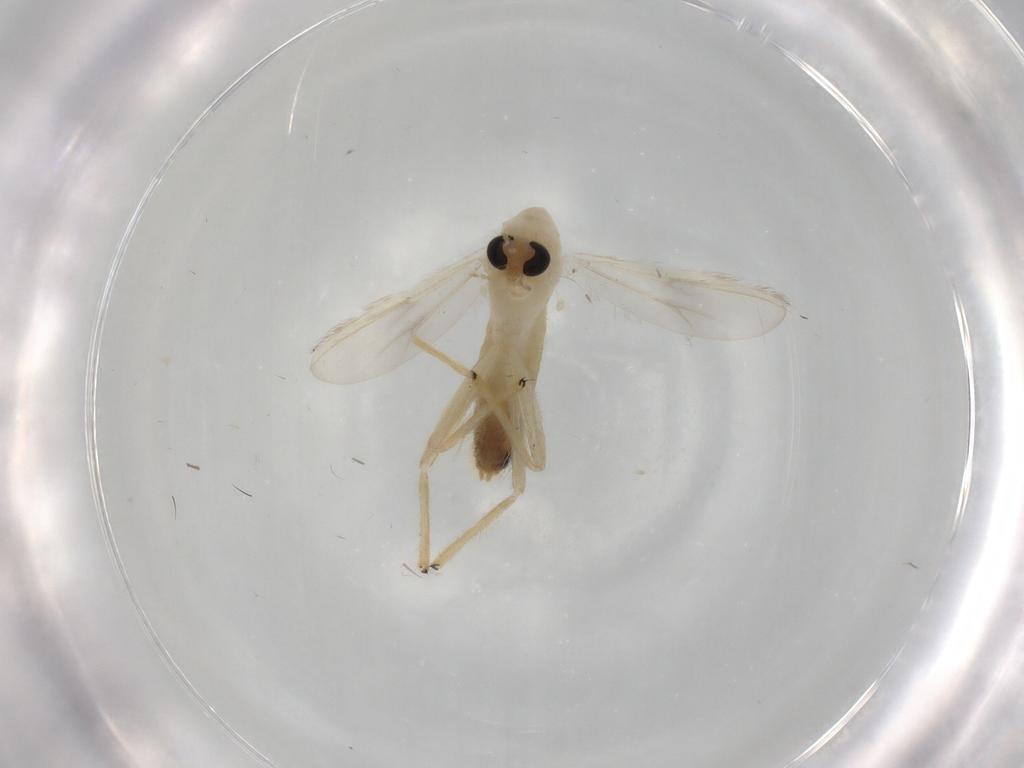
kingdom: Animalia
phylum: Arthropoda
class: Insecta
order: Diptera
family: Chironomidae
